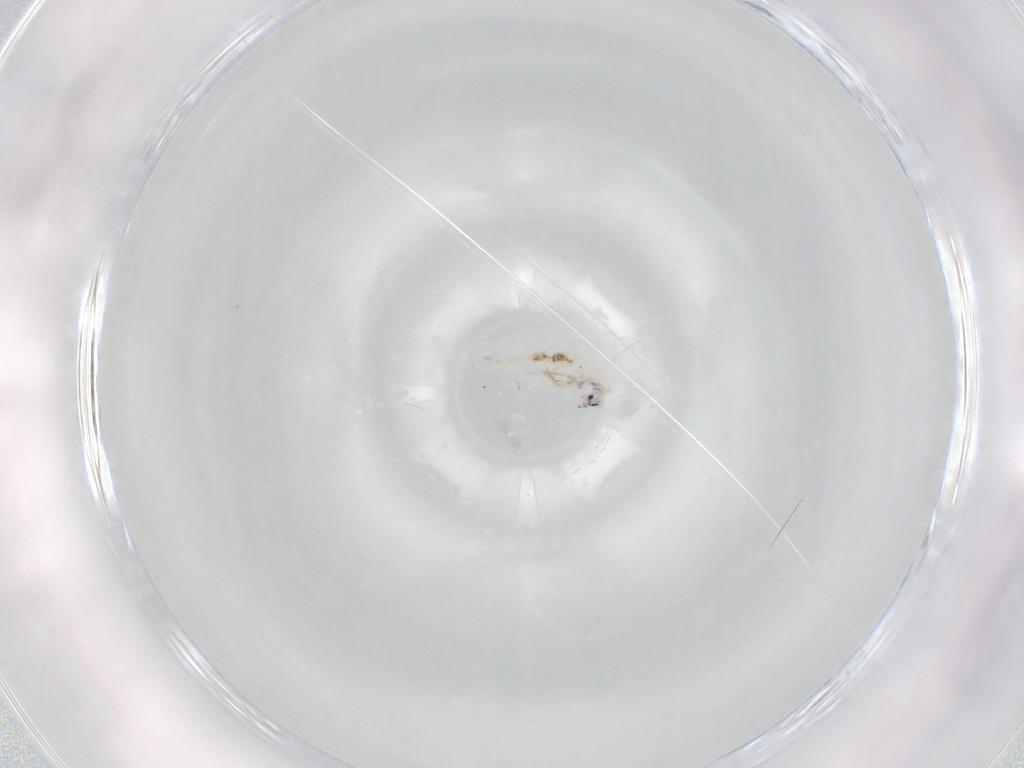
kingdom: Animalia
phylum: Arthropoda
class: Collembola
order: Entomobryomorpha
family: Entomobryidae
